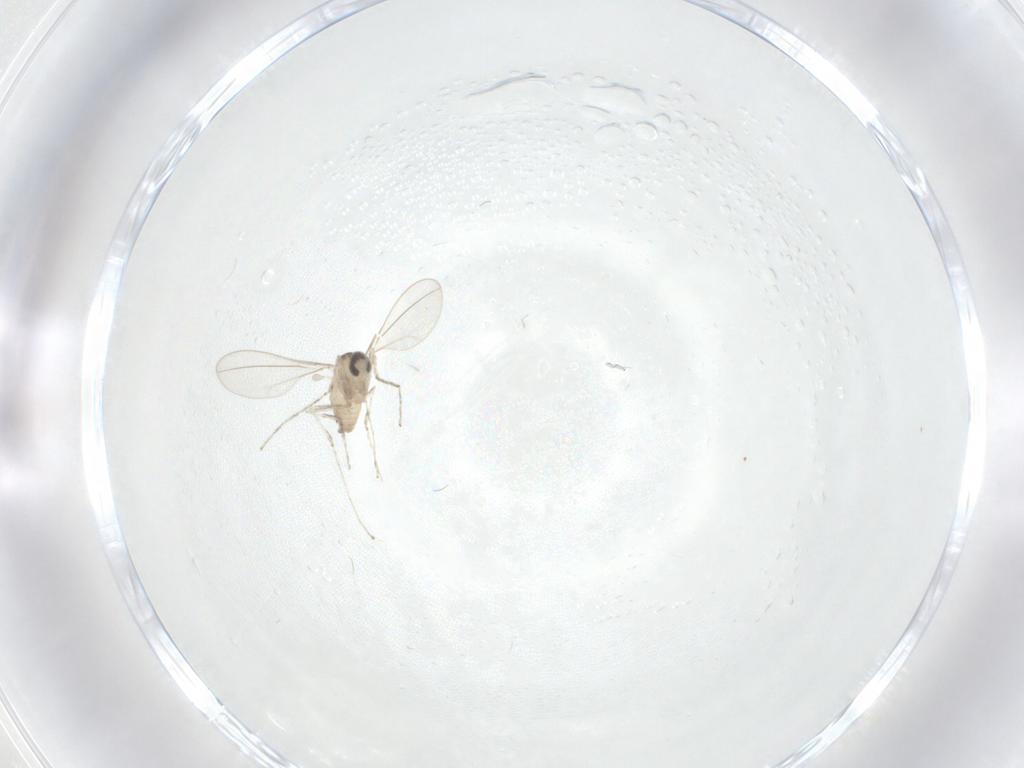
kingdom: Animalia
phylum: Arthropoda
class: Insecta
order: Diptera
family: Cecidomyiidae
